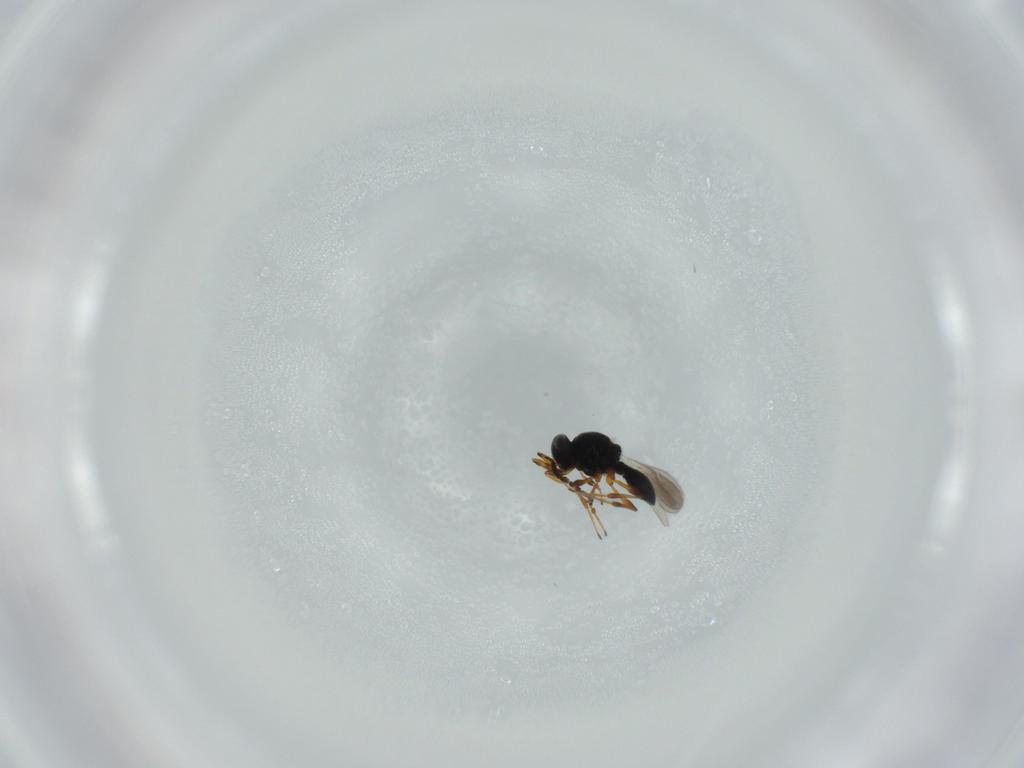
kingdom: Animalia
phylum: Arthropoda
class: Insecta
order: Hymenoptera
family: Platygastridae
